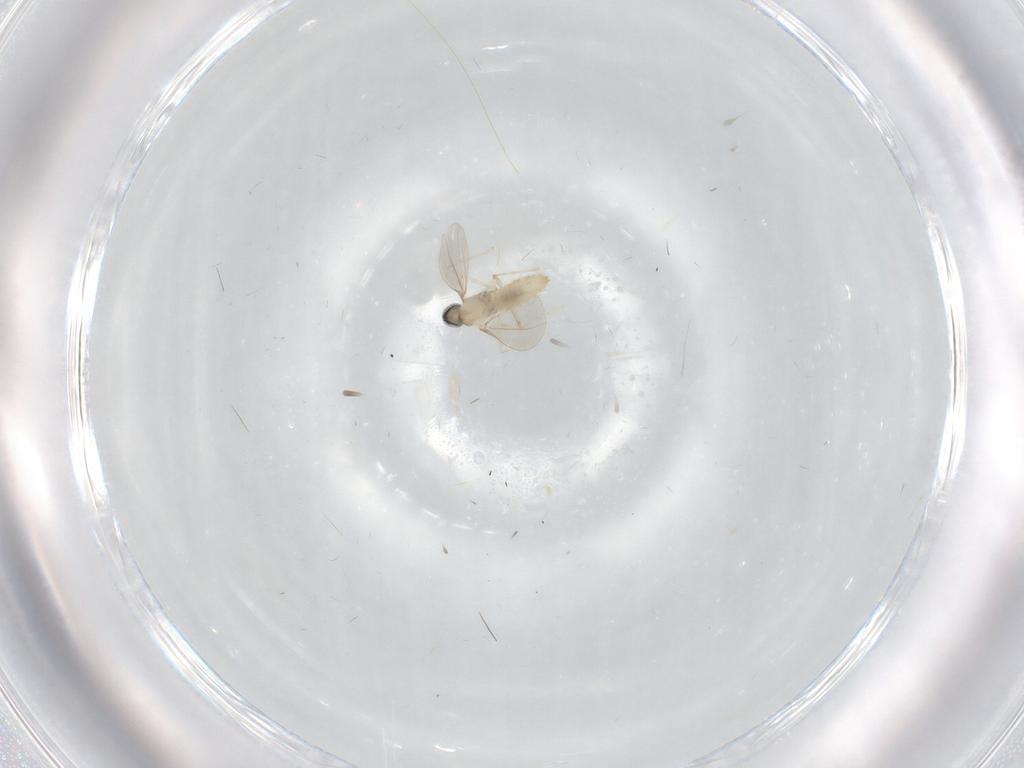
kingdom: Animalia
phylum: Arthropoda
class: Insecta
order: Diptera
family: Cecidomyiidae
